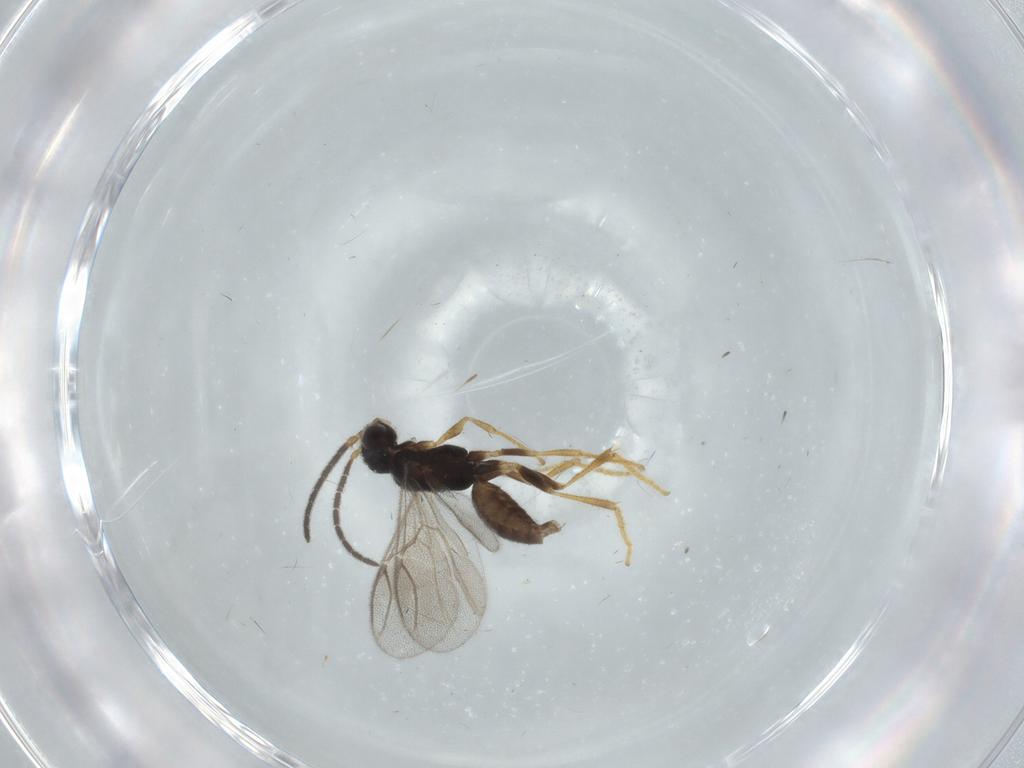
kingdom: Animalia
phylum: Arthropoda
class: Insecta
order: Hymenoptera
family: Dryinidae
